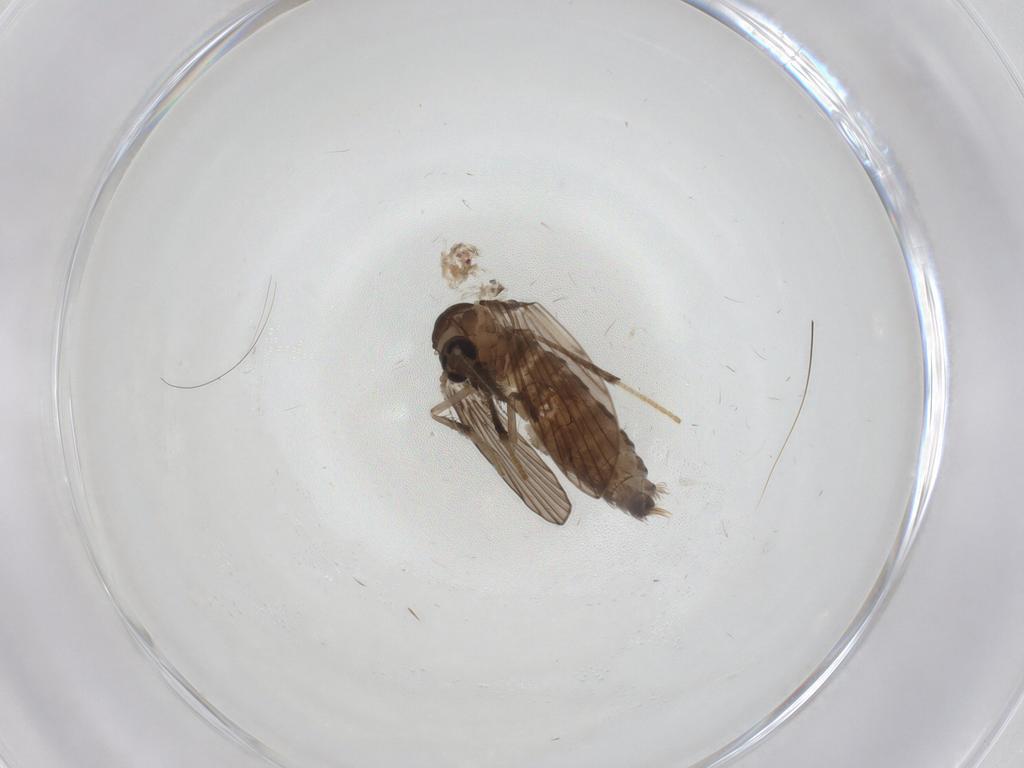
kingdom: Animalia
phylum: Arthropoda
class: Insecta
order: Diptera
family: Psychodidae
